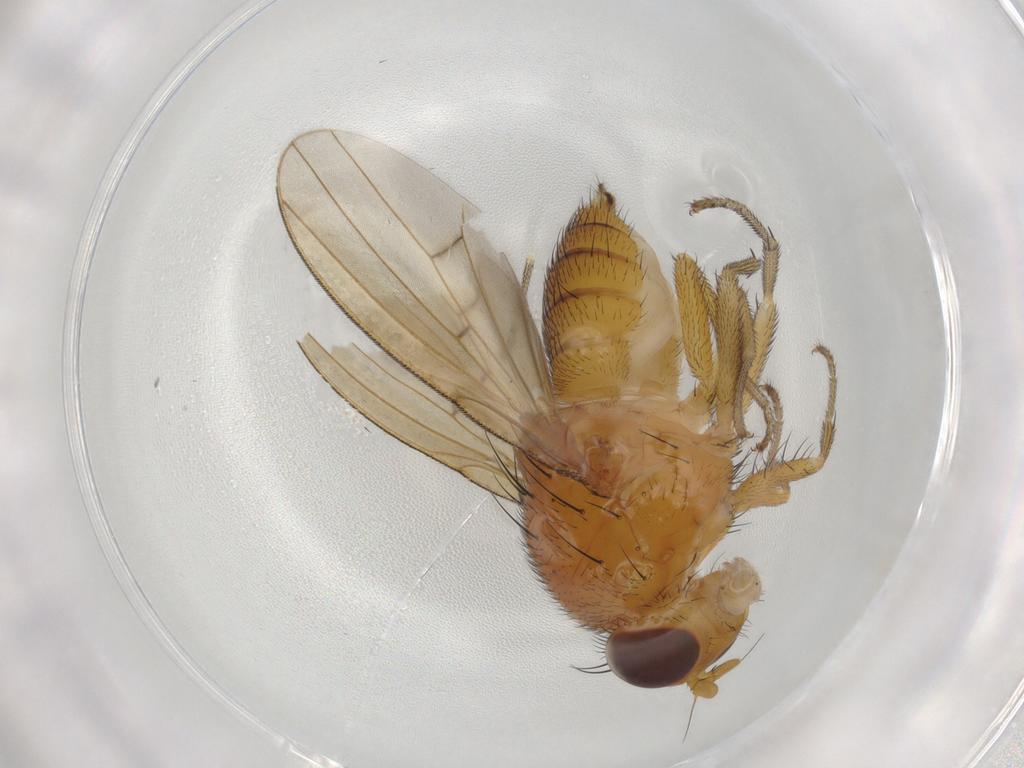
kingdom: Animalia
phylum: Arthropoda
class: Insecta
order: Diptera
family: Lauxaniidae
